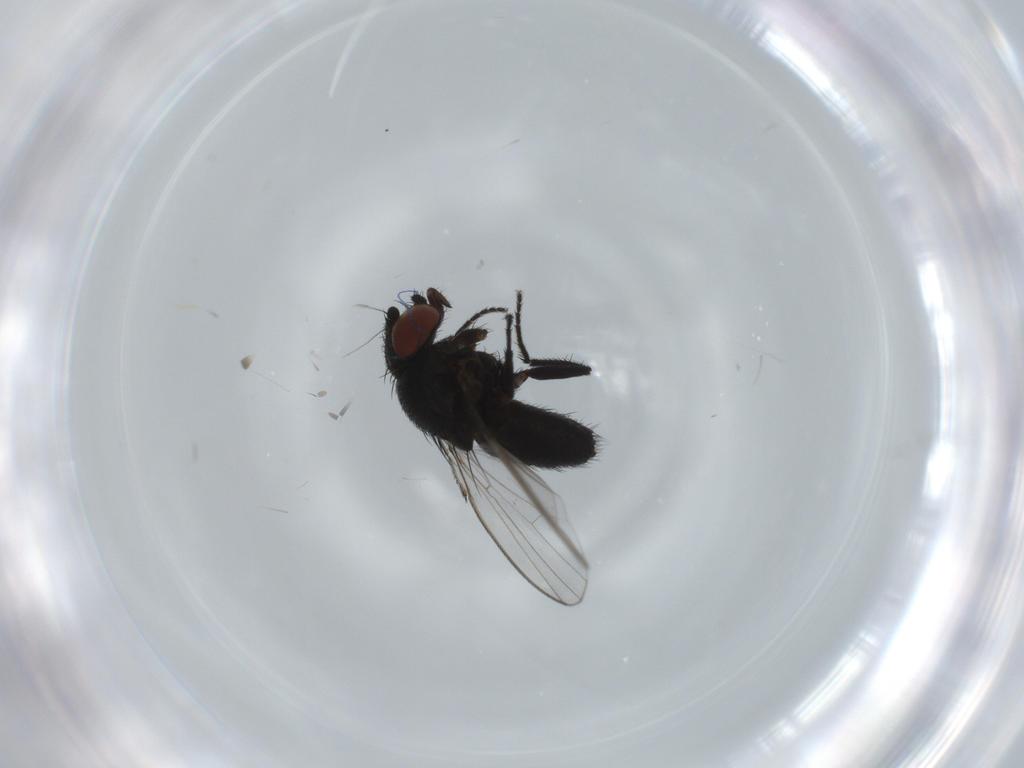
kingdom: Animalia
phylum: Arthropoda
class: Insecta
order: Diptera
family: Milichiidae
